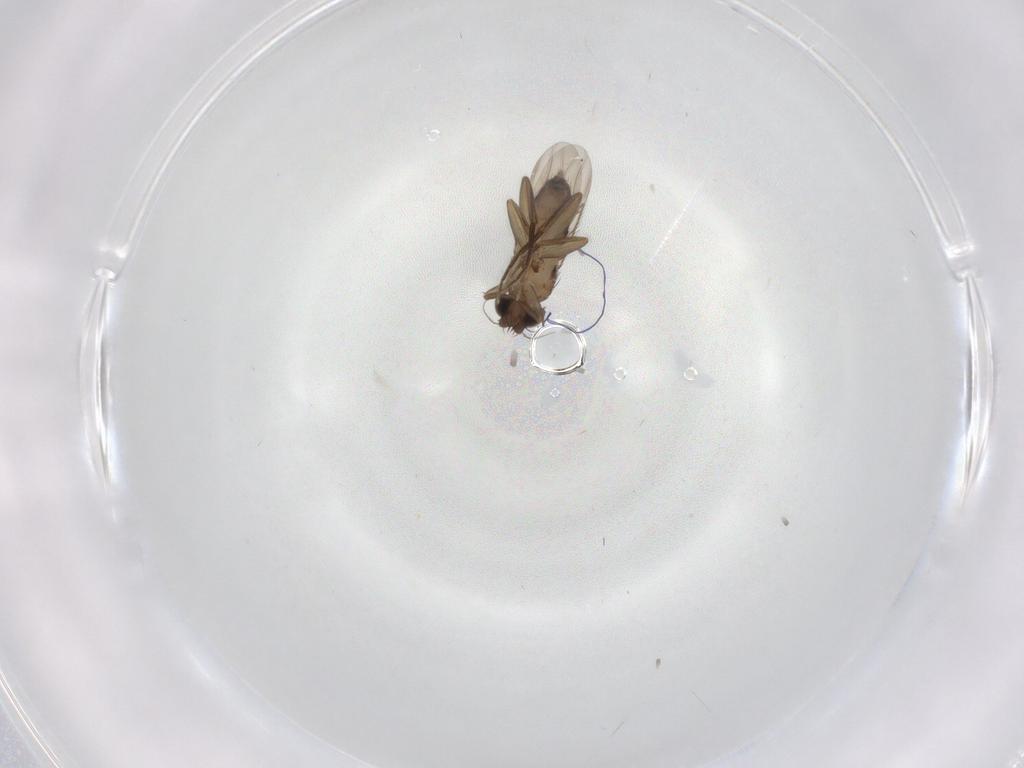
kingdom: Animalia
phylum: Arthropoda
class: Insecta
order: Diptera
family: Phoridae
